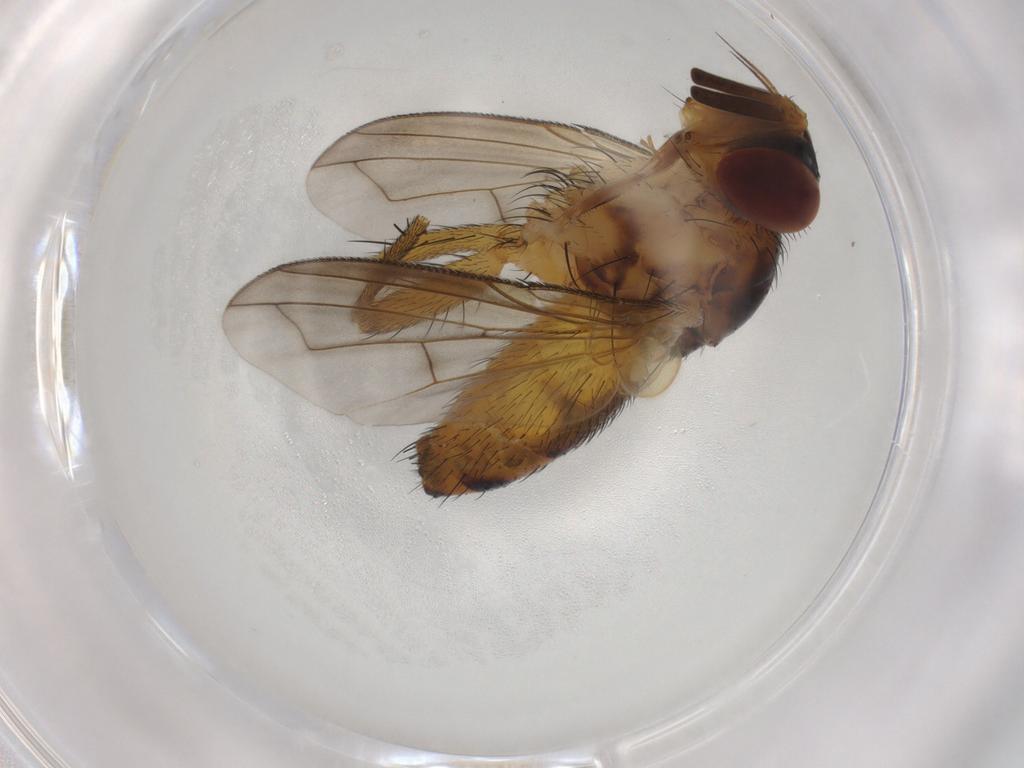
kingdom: Animalia
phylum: Arthropoda
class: Insecta
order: Diptera
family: Tachinidae
